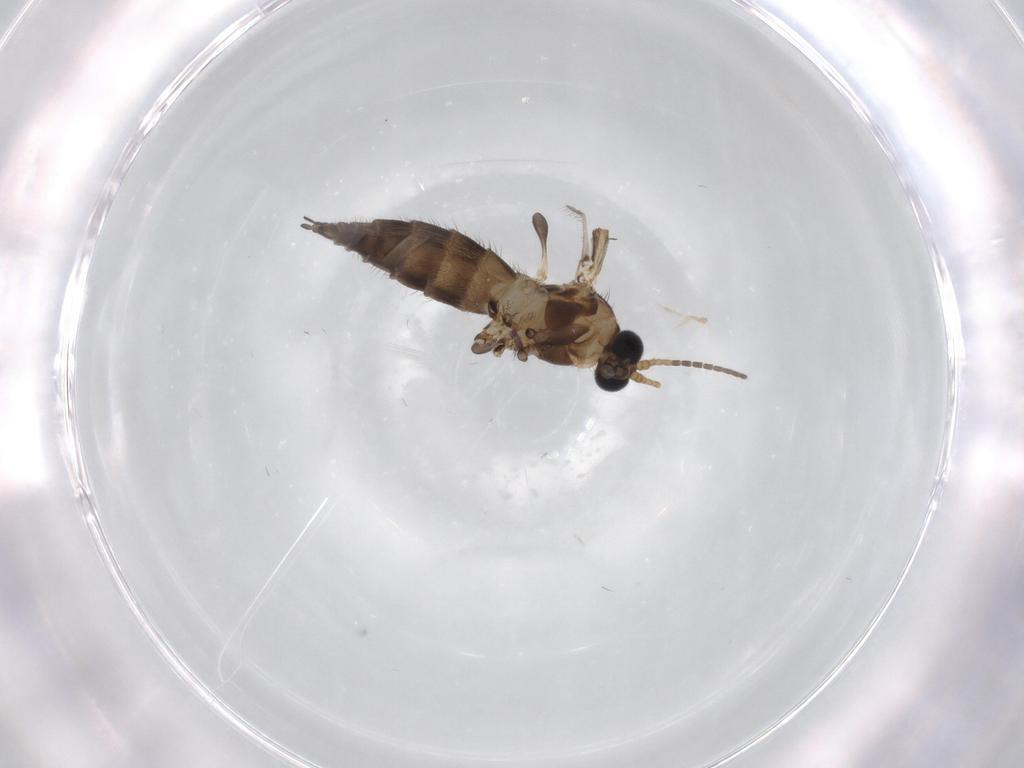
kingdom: Animalia
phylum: Arthropoda
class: Insecta
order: Diptera
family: Sciaridae
